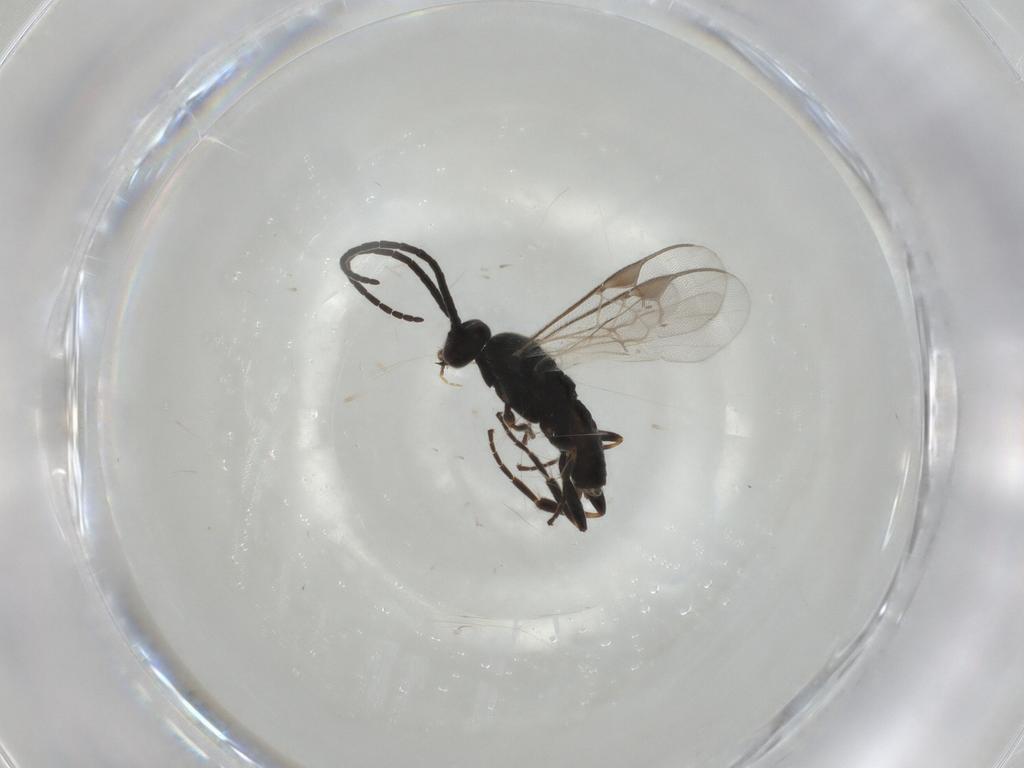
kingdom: Animalia
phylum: Arthropoda
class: Insecta
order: Hymenoptera
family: Braconidae
